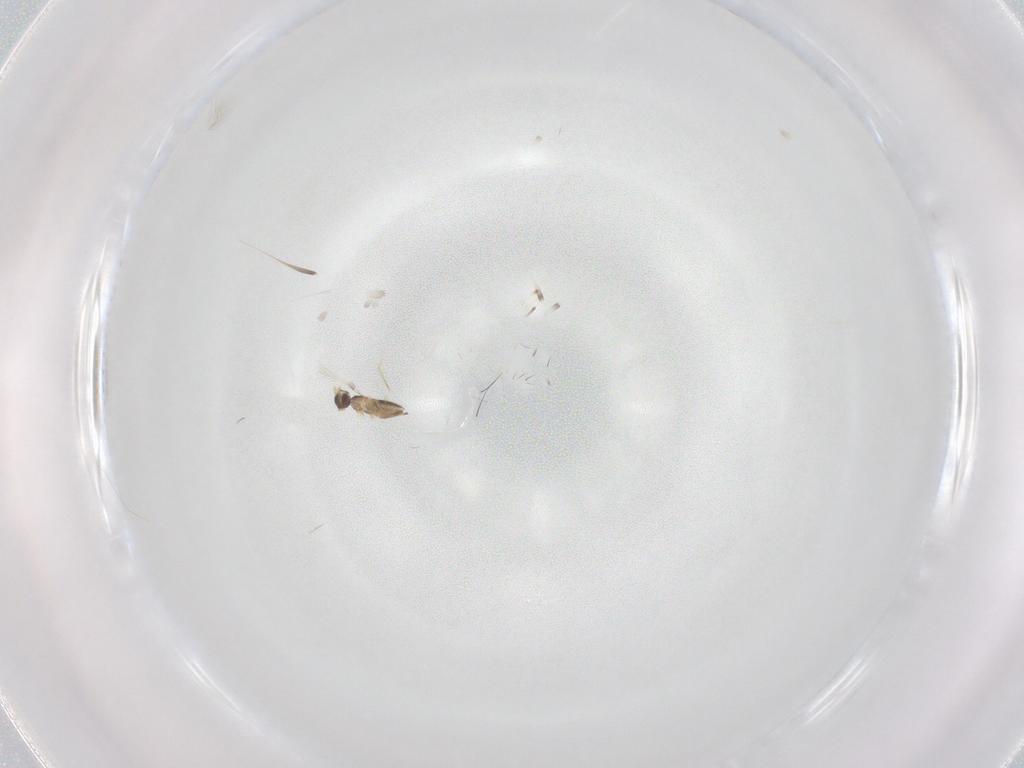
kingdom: Animalia
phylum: Arthropoda
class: Insecta
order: Hymenoptera
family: Mymaridae
